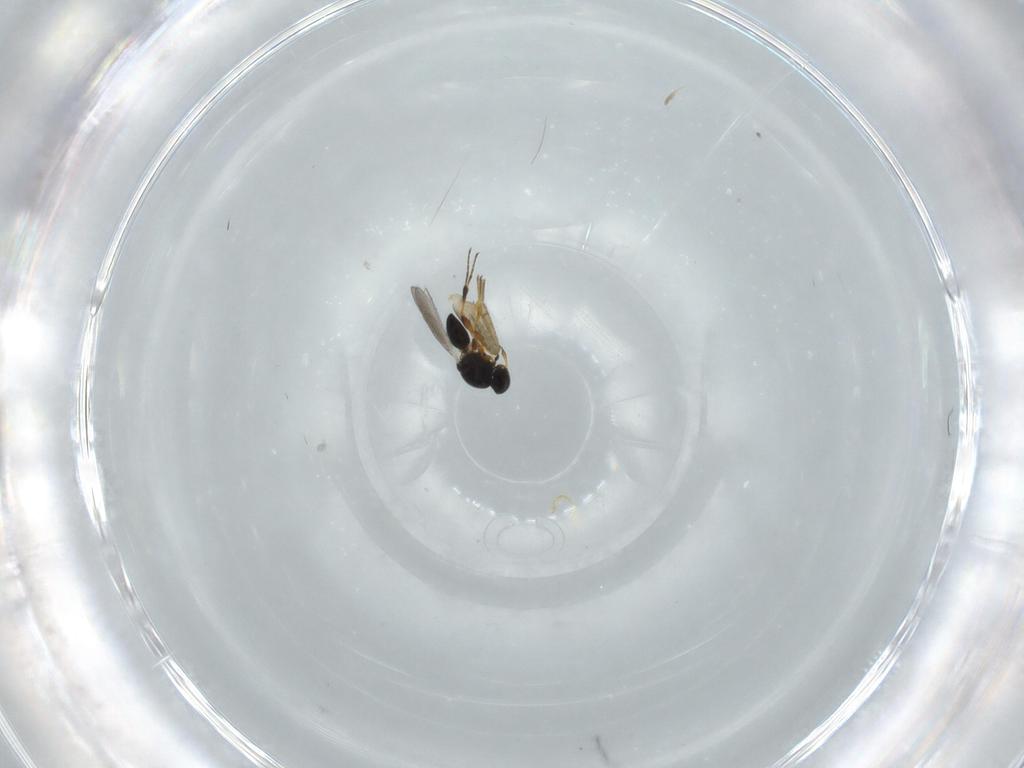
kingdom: Animalia
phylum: Arthropoda
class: Insecta
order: Hymenoptera
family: Platygastridae
